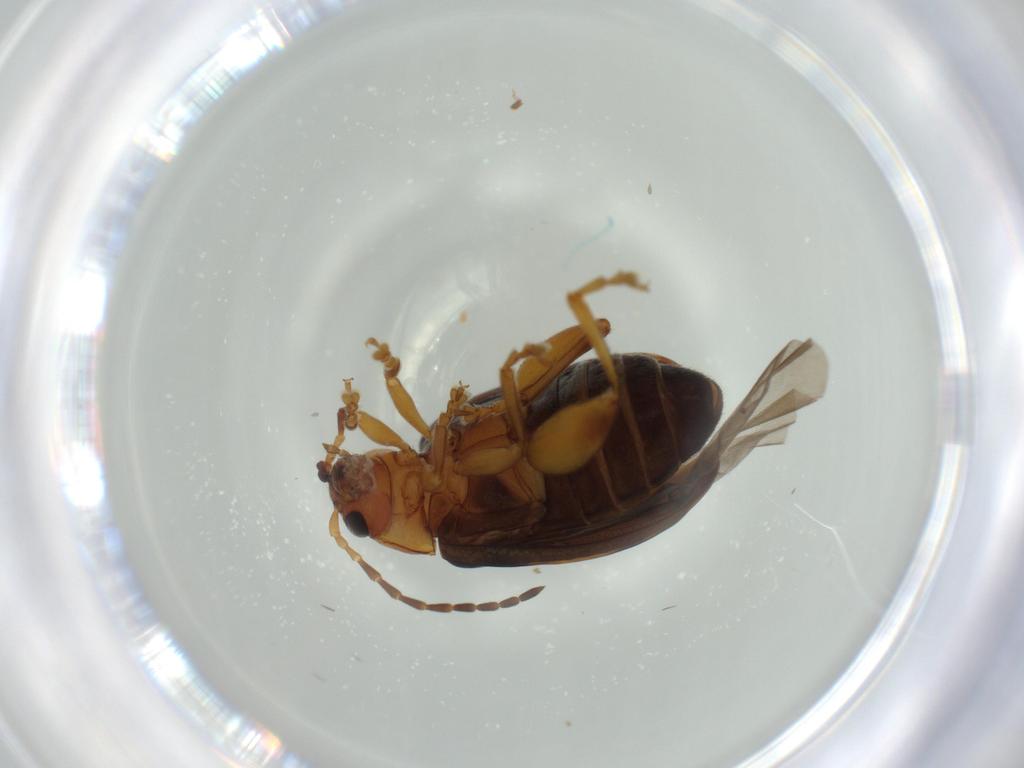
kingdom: Animalia
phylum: Arthropoda
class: Insecta
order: Coleoptera
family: Chrysomelidae
